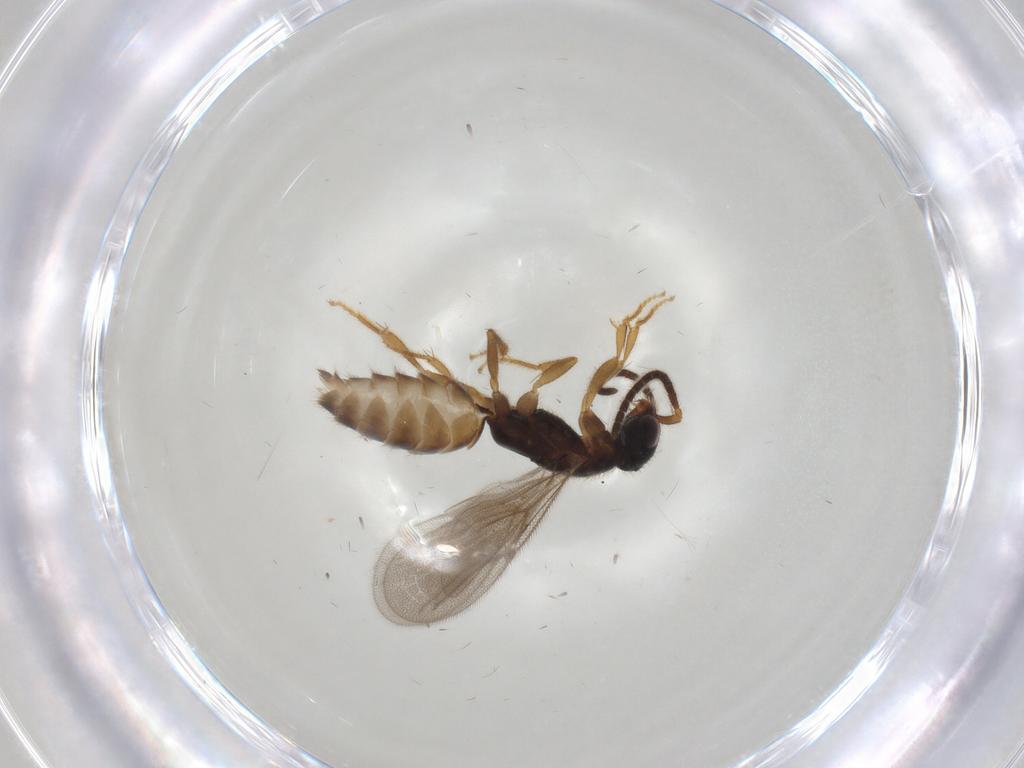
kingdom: Animalia
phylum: Arthropoda
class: Insecta
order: Hymenoptera
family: Bethylidae
